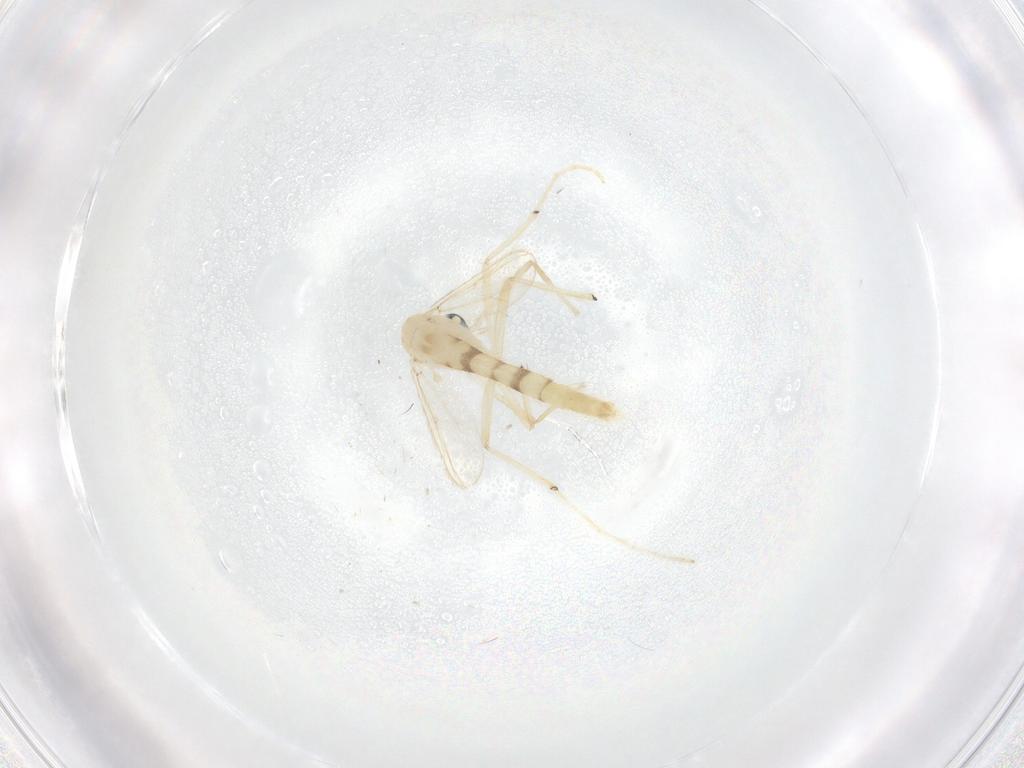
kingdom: Animalia
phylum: Arthropoda
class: Insecta
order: Diptera
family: Chironomidae
